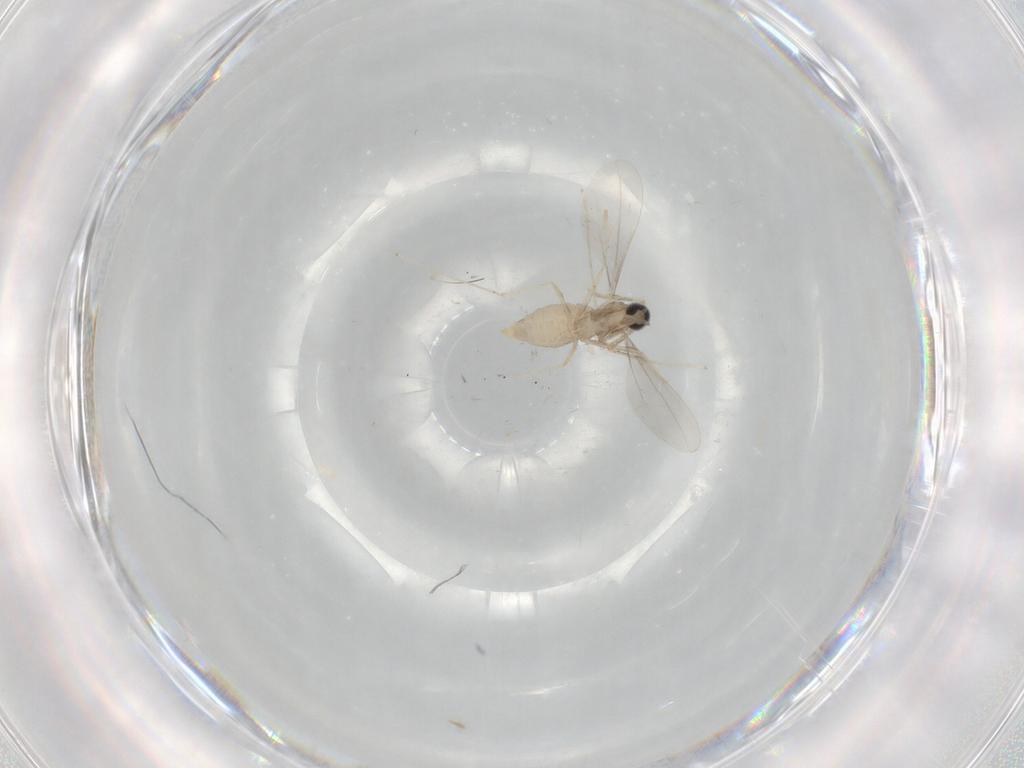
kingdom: Animalia
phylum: Arthropoda
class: Insecta
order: Diptera
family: Cecidomyiidae
